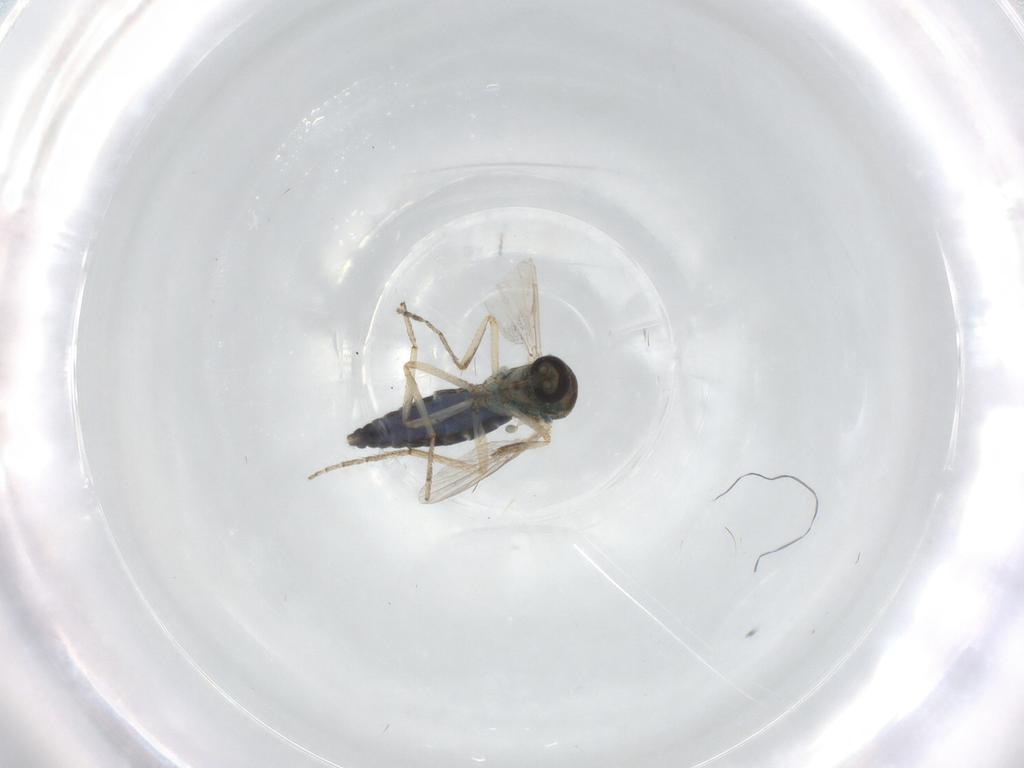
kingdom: Animalia
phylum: Arthropoda
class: Insecta
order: Diptera
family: Ceratopogonidae
